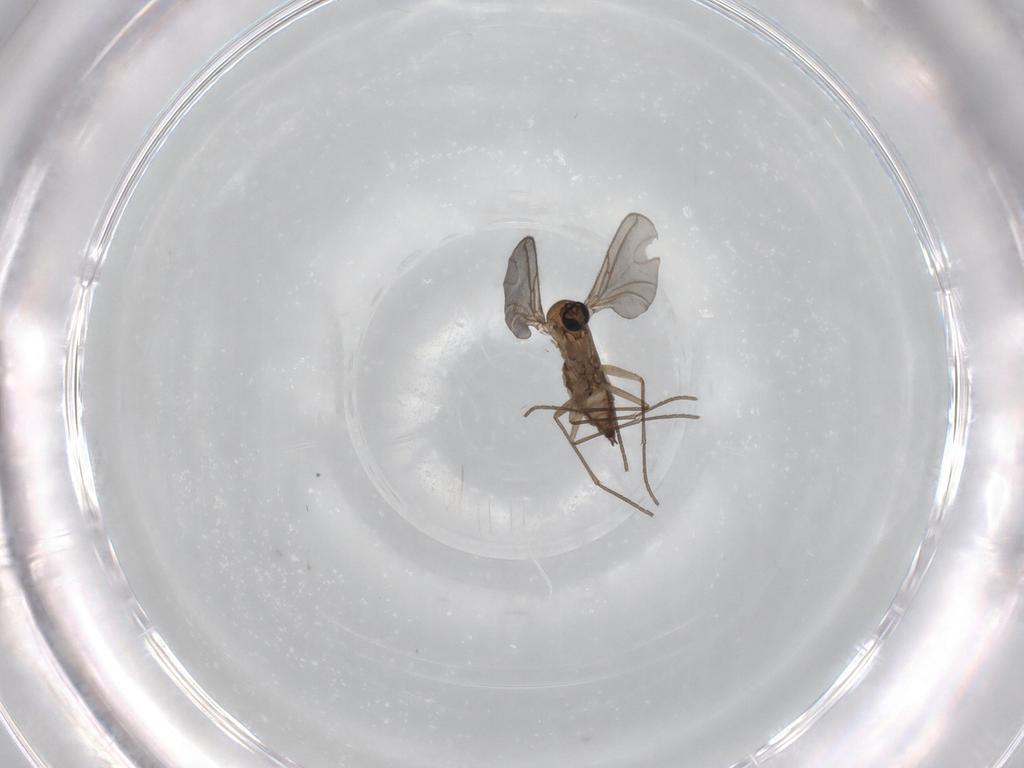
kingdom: Animalia
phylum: Arthropoda
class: Insecta
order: Diptera
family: Sciaridae
